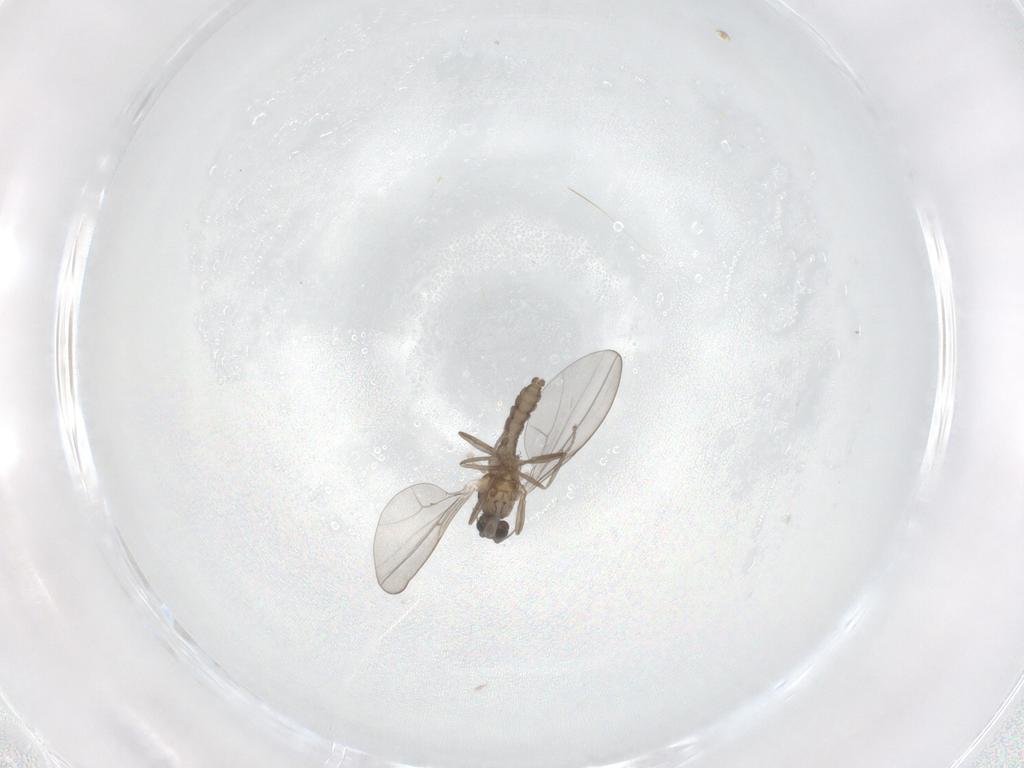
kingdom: Animalia
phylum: Arthropoda
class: Insecta
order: Diptera
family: Cecidomyiidae
